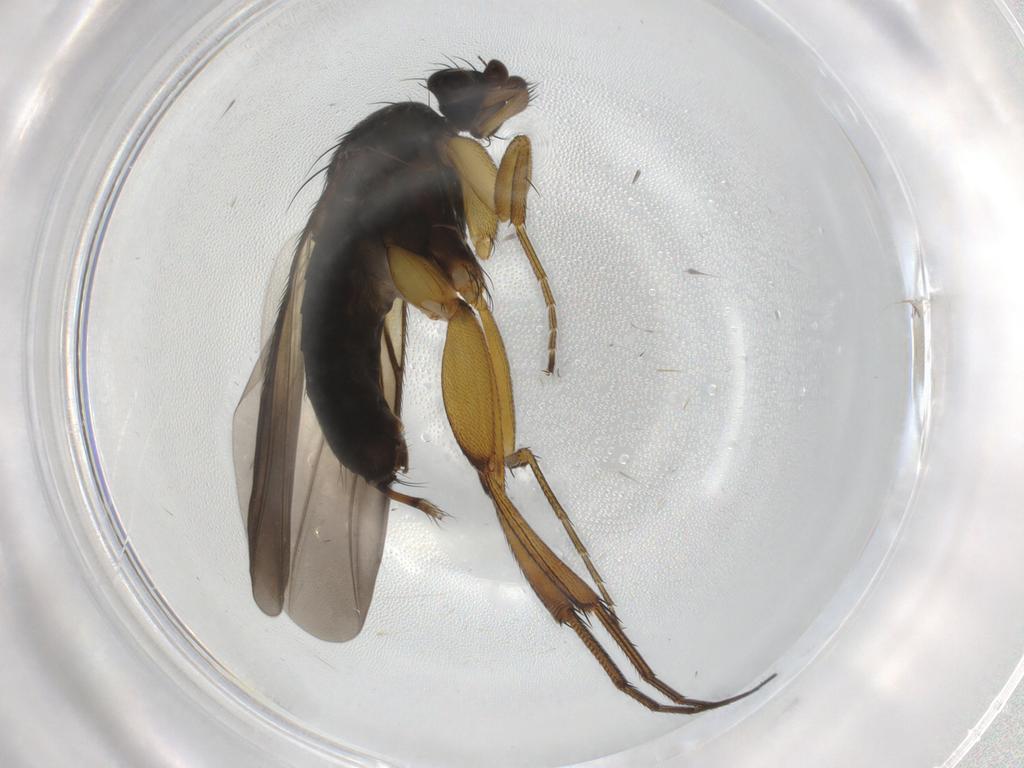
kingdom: Animalia
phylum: Arthropoda
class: Insecta
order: Diptera
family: Phoridae
